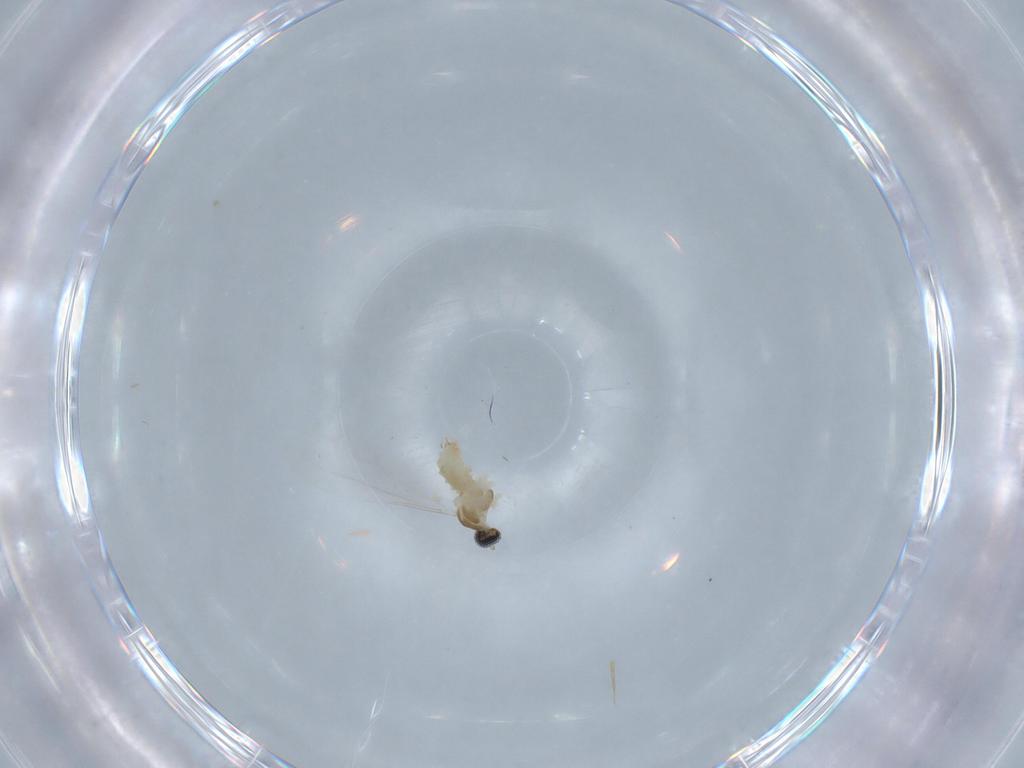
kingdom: Animalia
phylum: Arthropoda
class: Insecta
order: Diptera
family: Cecidomyiidae
